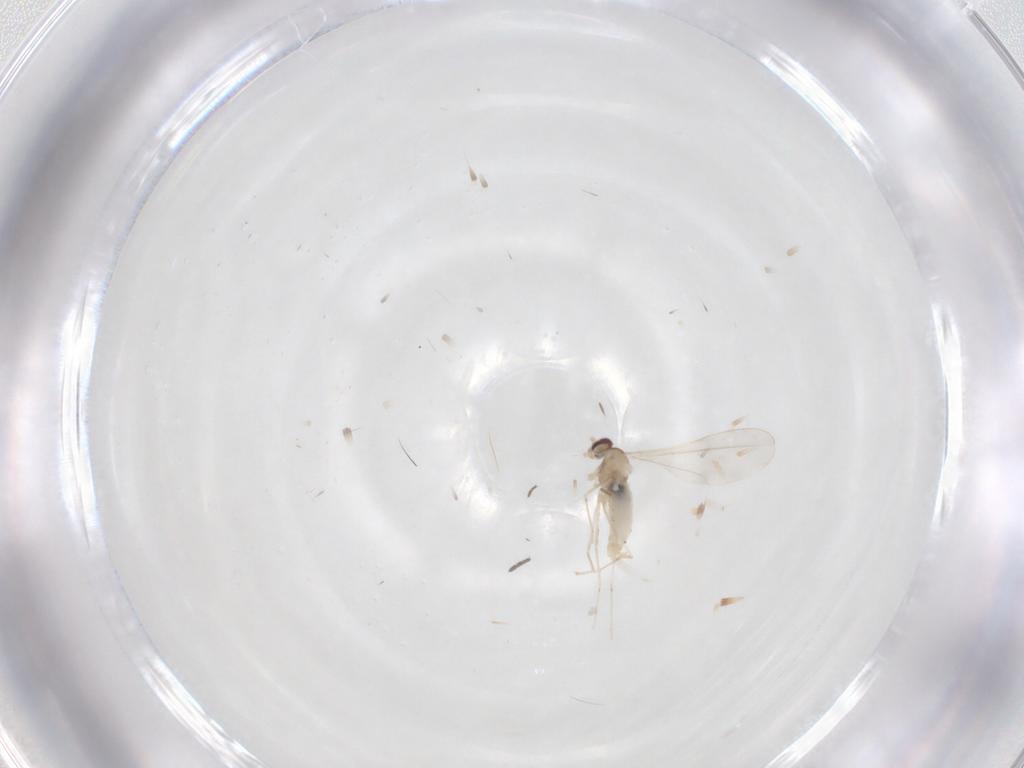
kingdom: Animalia
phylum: Arthropoda
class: Insecta
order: Diptera
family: Cecidomyiidae
